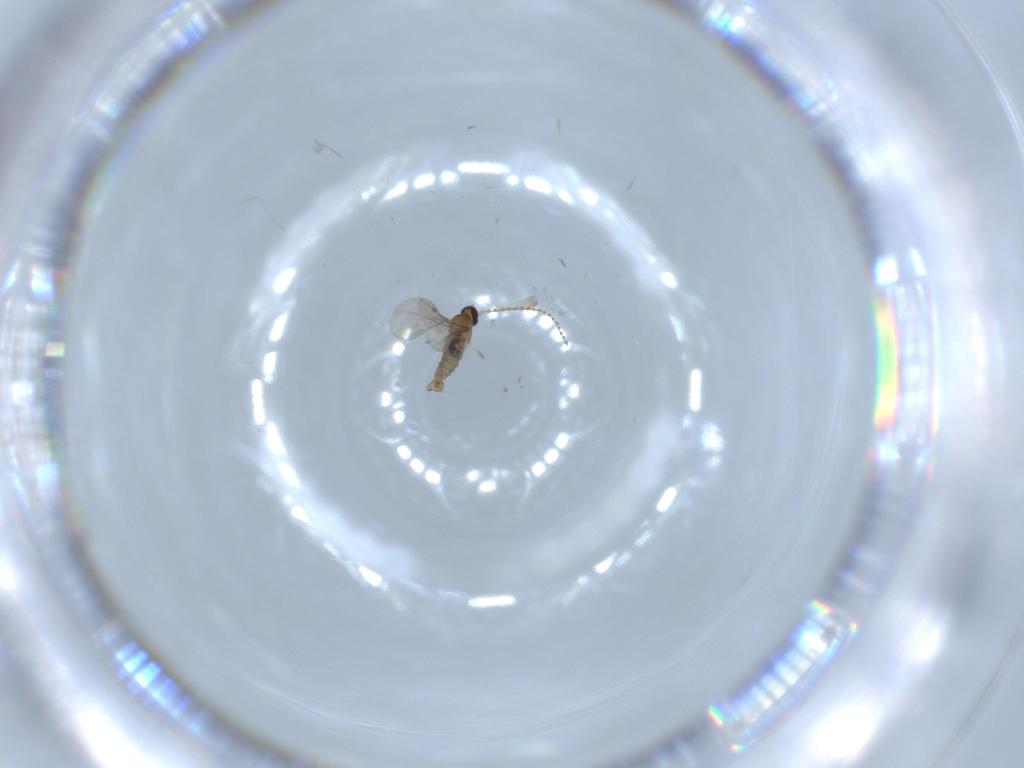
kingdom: Animalia
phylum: Arthropoda
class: Insecta
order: Diptera
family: Cecidomyiidae
